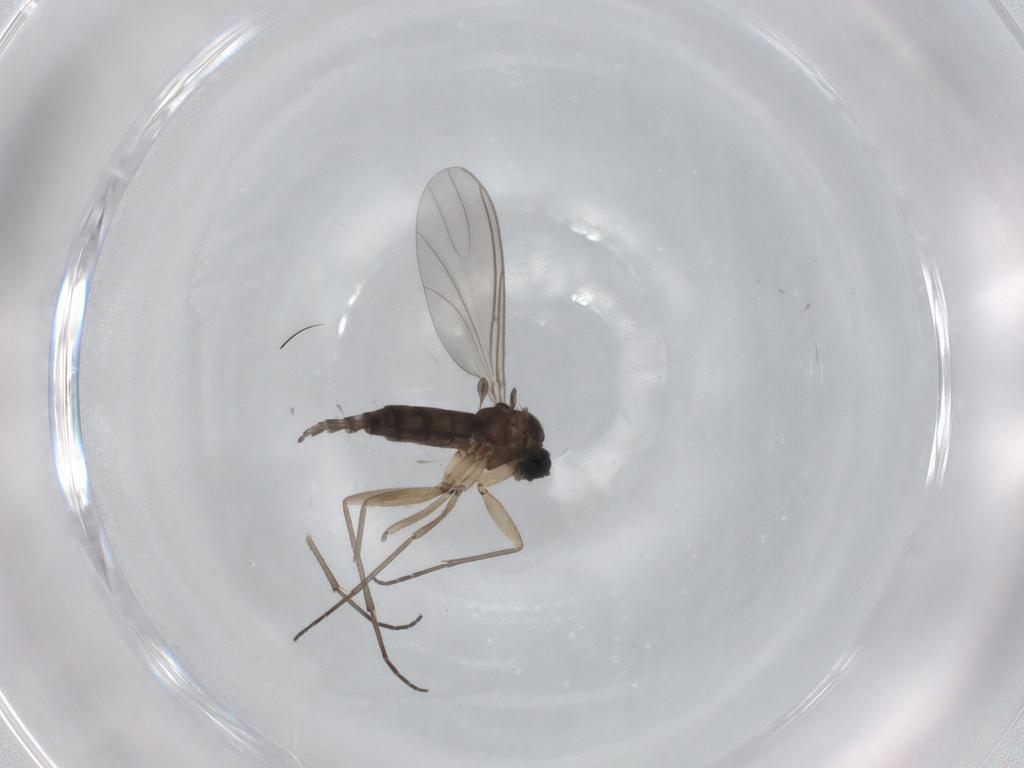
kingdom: Animalia
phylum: Arthropoda
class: Insecta
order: Diptera
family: Sciaridae
